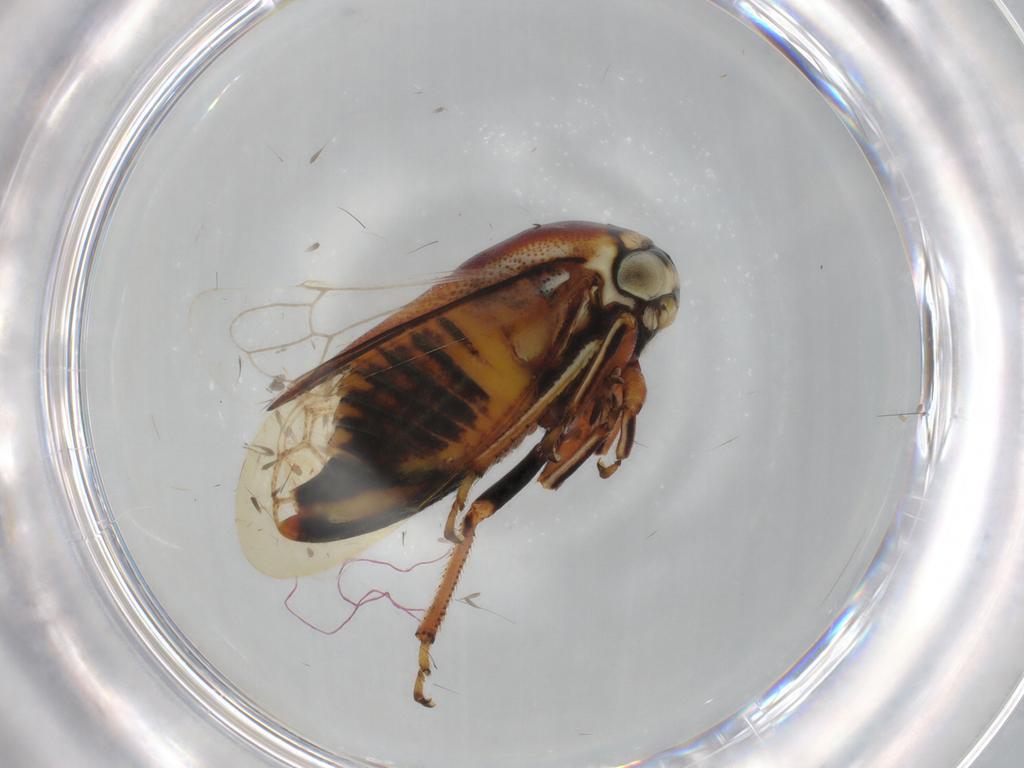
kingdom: Animalia
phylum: Arthropoda
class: Insecta
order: Hemiptera
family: Membracidae
